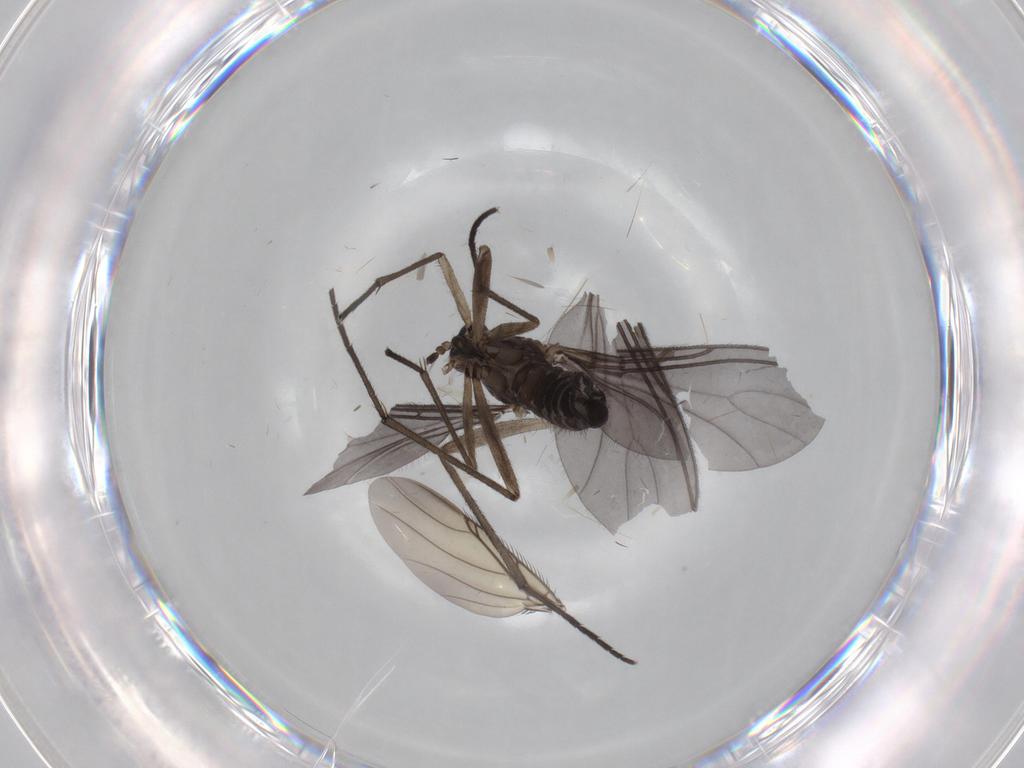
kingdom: Animalia
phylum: Arthropoda
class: Insecta
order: Diptera
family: Sciaridae
